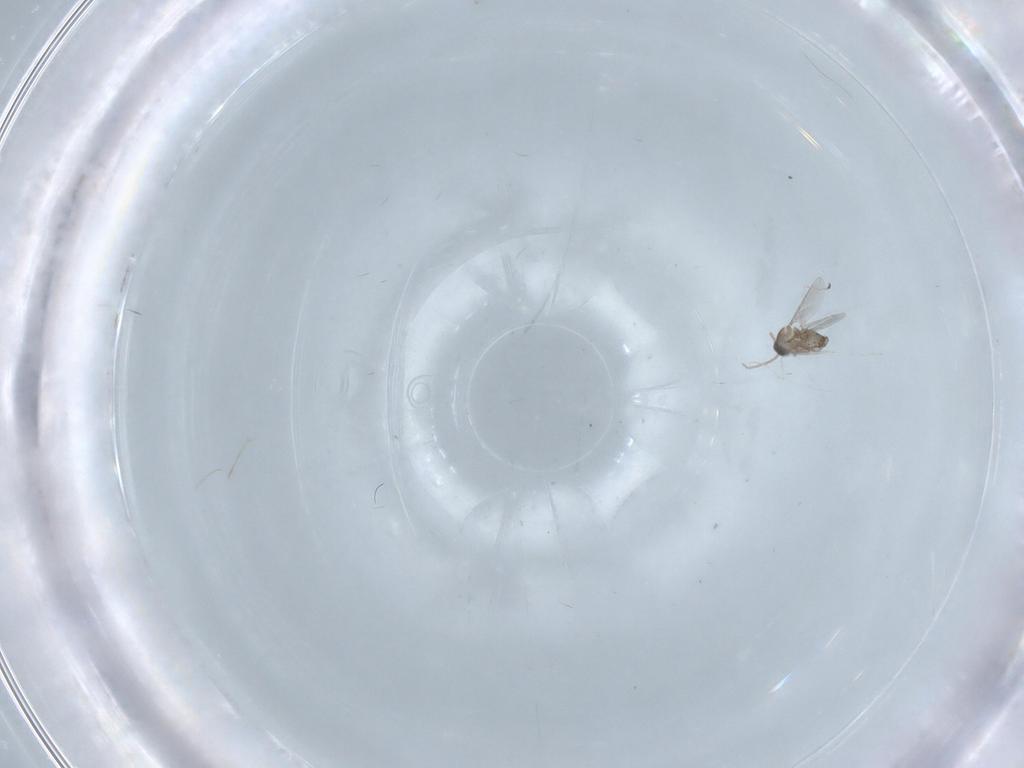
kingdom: Animalia
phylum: Arthropoda
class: Insecta
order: Diptera
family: Cecidomyiidae
